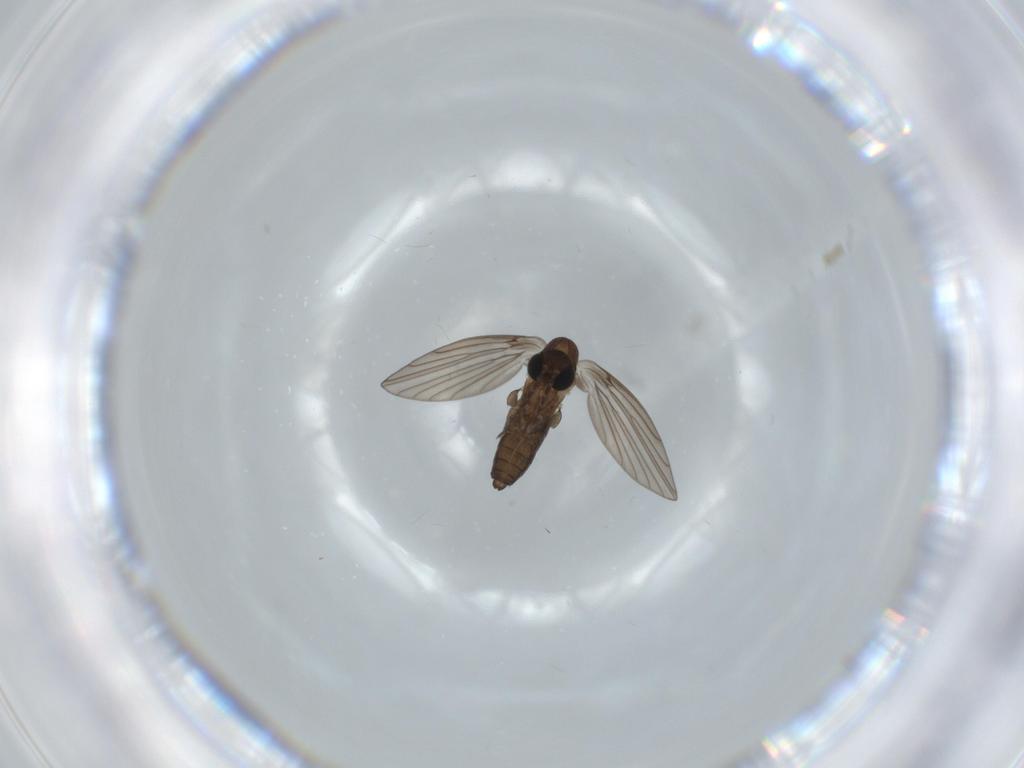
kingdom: Animalia
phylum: Arthropoda
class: Insecta
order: Diptera
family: Psychodidae
